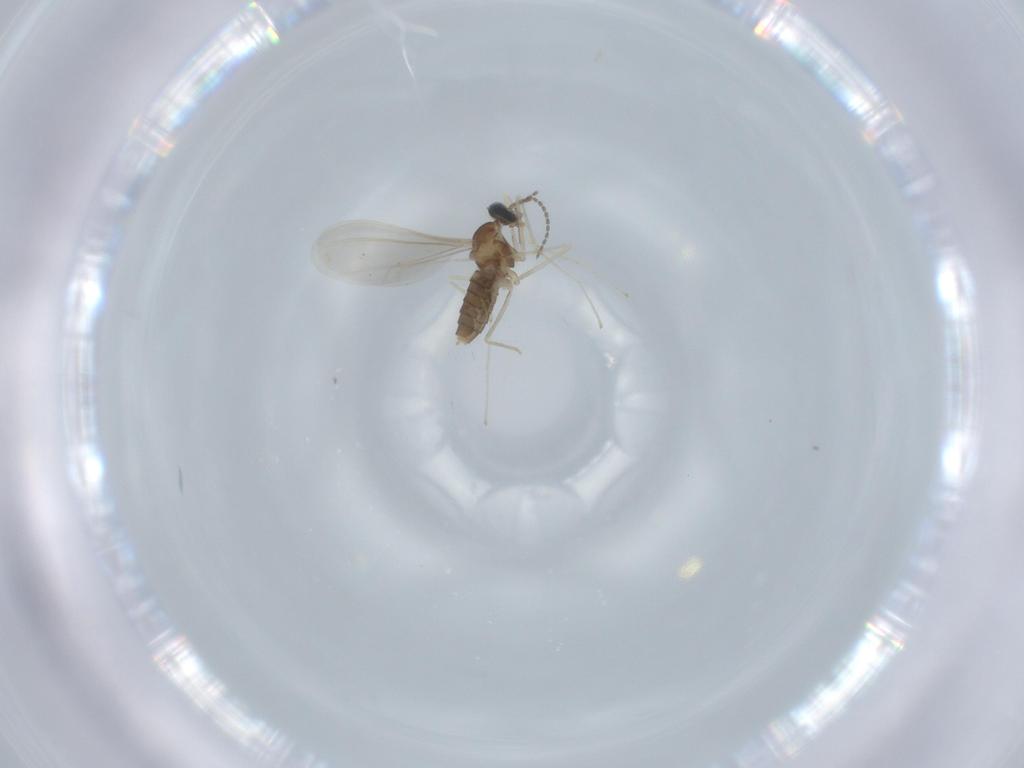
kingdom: Animalia
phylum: Arthropoda
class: Insecta
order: Diptera
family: Cecidomyiidae
